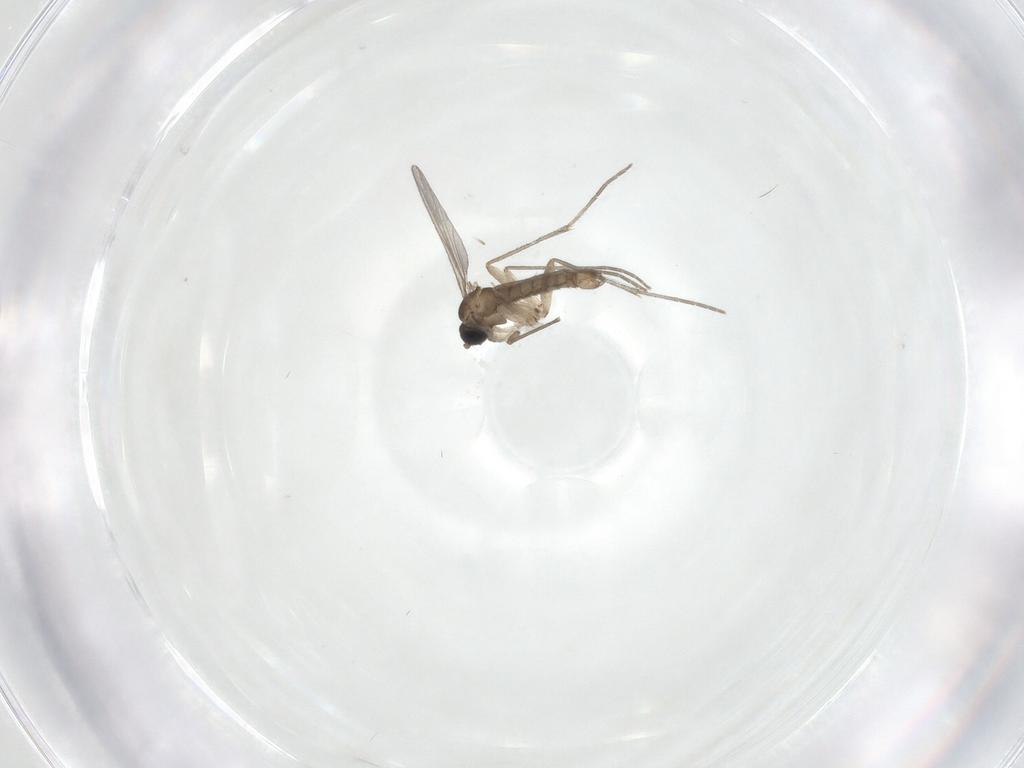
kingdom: Animalia
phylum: Arthropoda
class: Insecta
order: Diptera
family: Sciaridae
